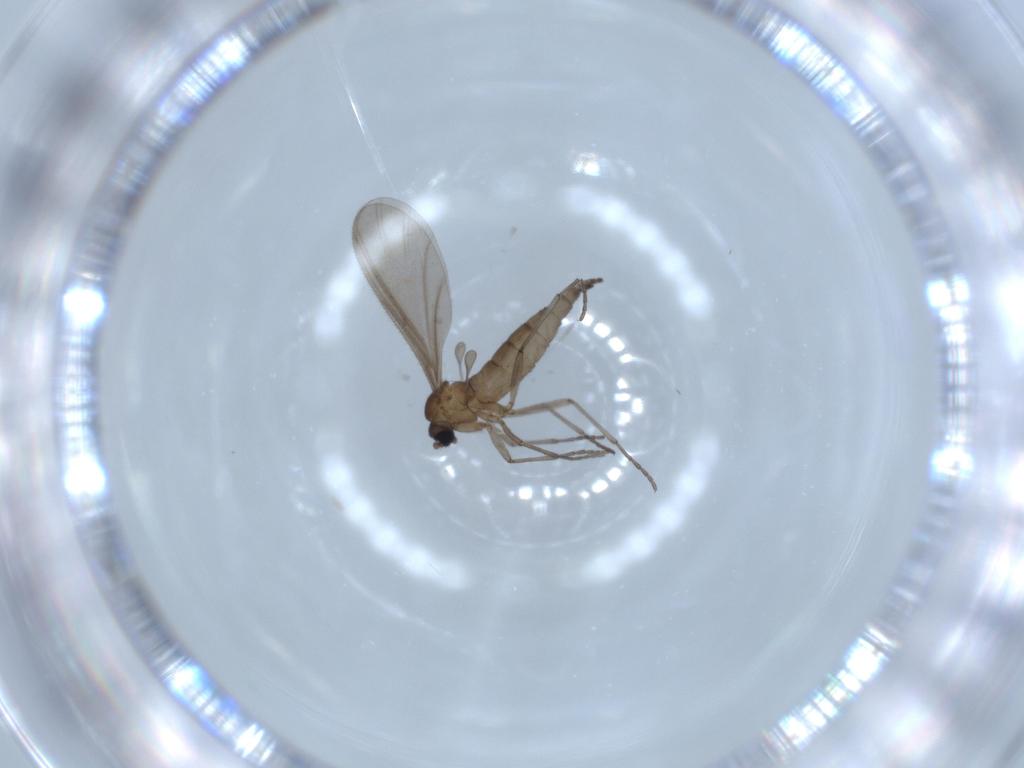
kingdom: Animalia
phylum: Arthropoda
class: Insecta
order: Diptera
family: Sciaridae
